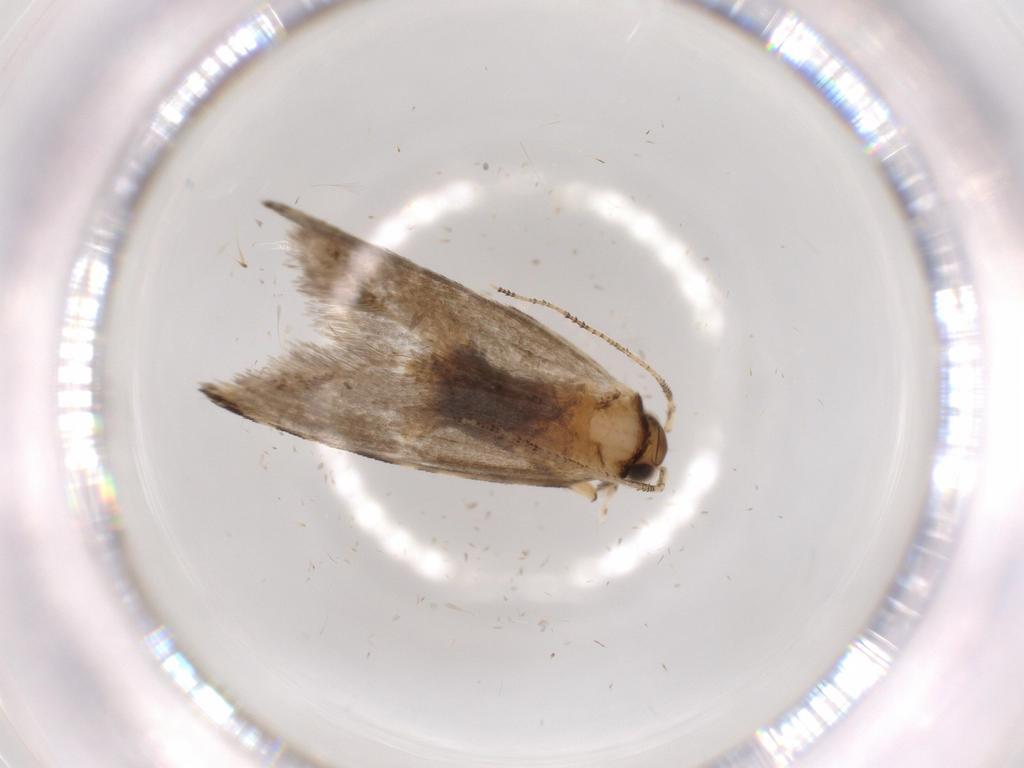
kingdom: Animalia
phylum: Arthropoda
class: Insecta
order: Lepidoptera
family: Tineidae
